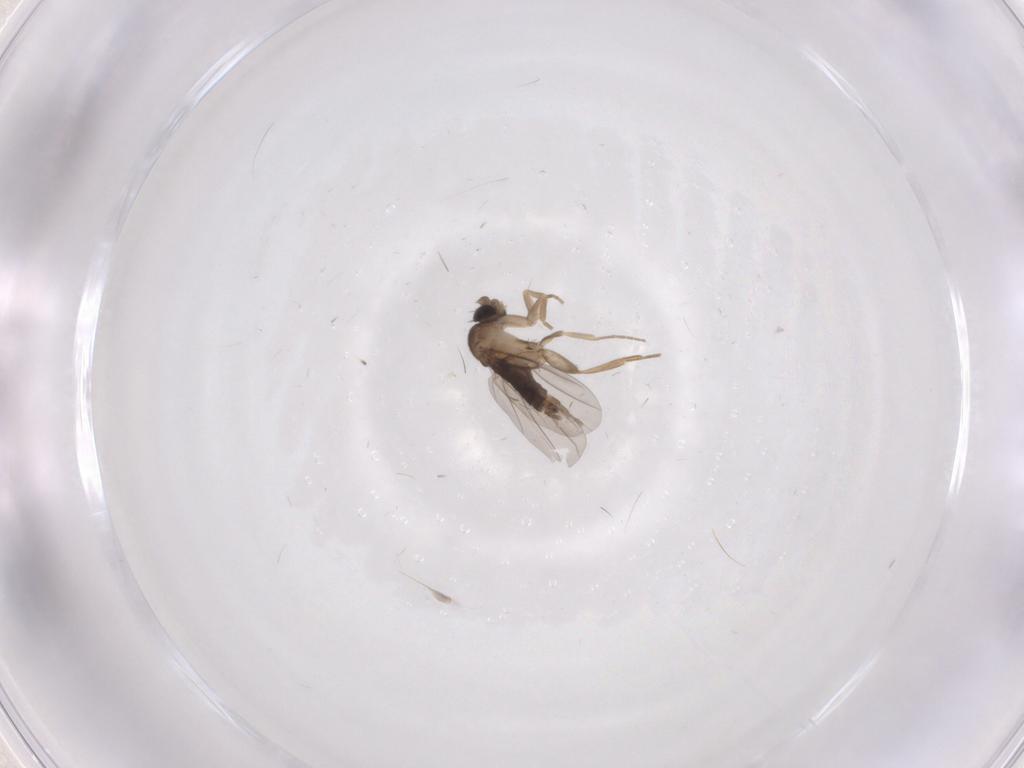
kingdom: Animalia
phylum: Arthropoda
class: Insecta
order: Diptera
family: Phoridae
